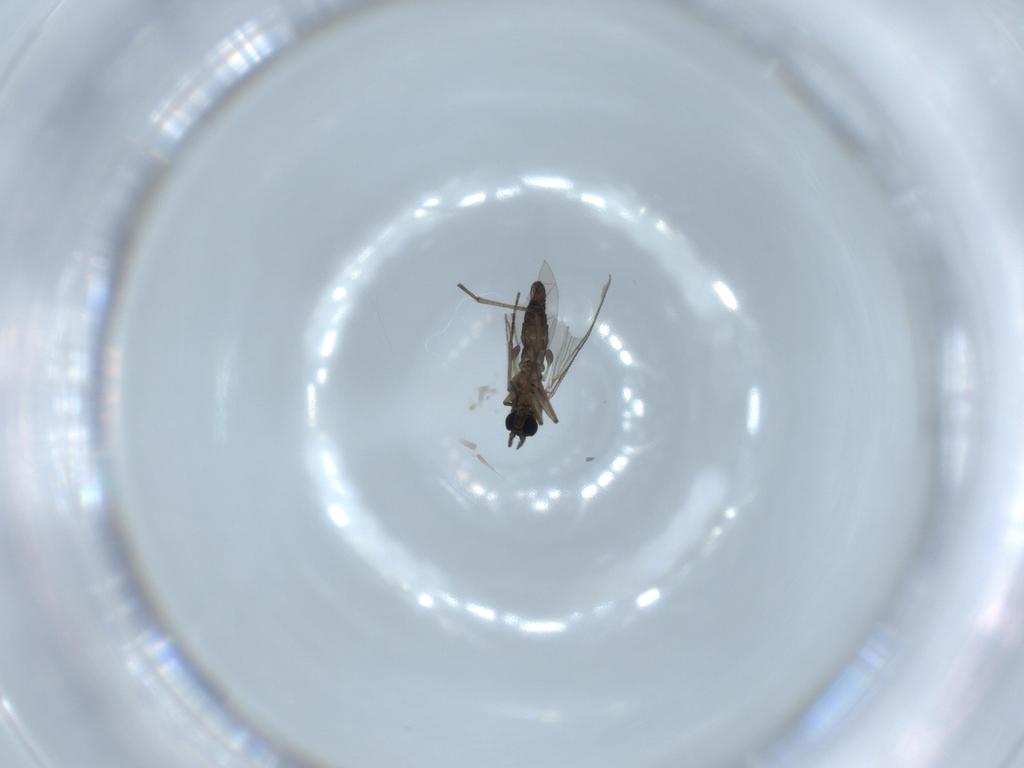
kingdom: Animalia
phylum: Arthropoda
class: Insecta
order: Diptera
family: Sciaridae
